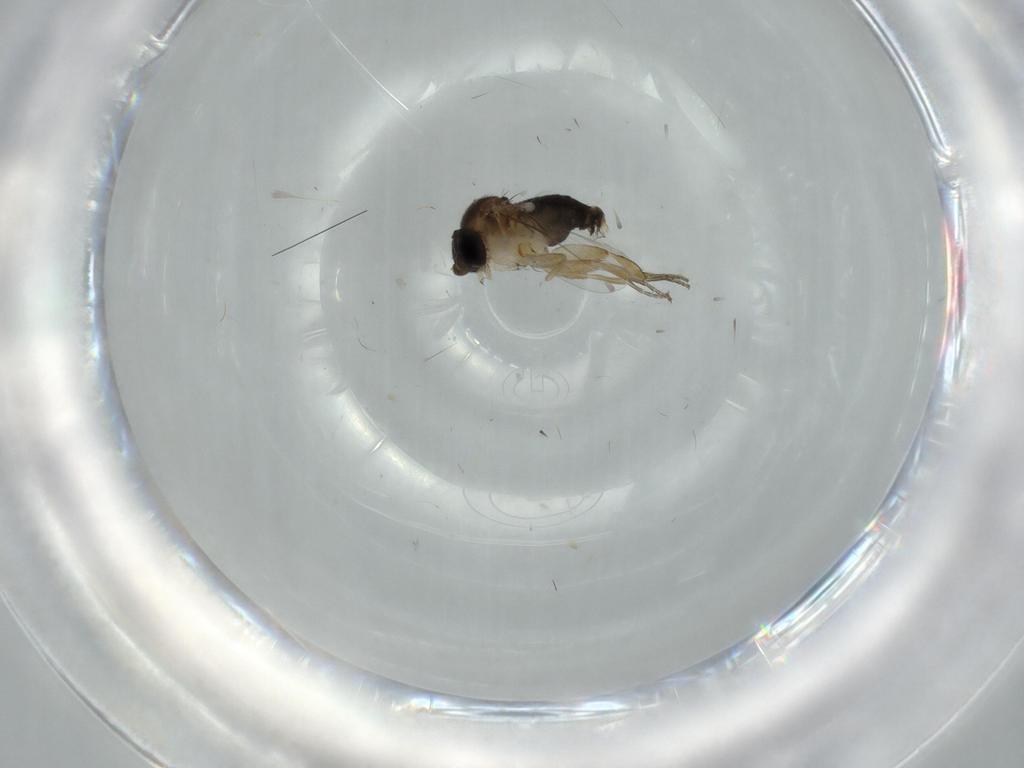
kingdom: Animalia
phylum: Arthropoda
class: Insecta
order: Diptera
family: Phoridae
